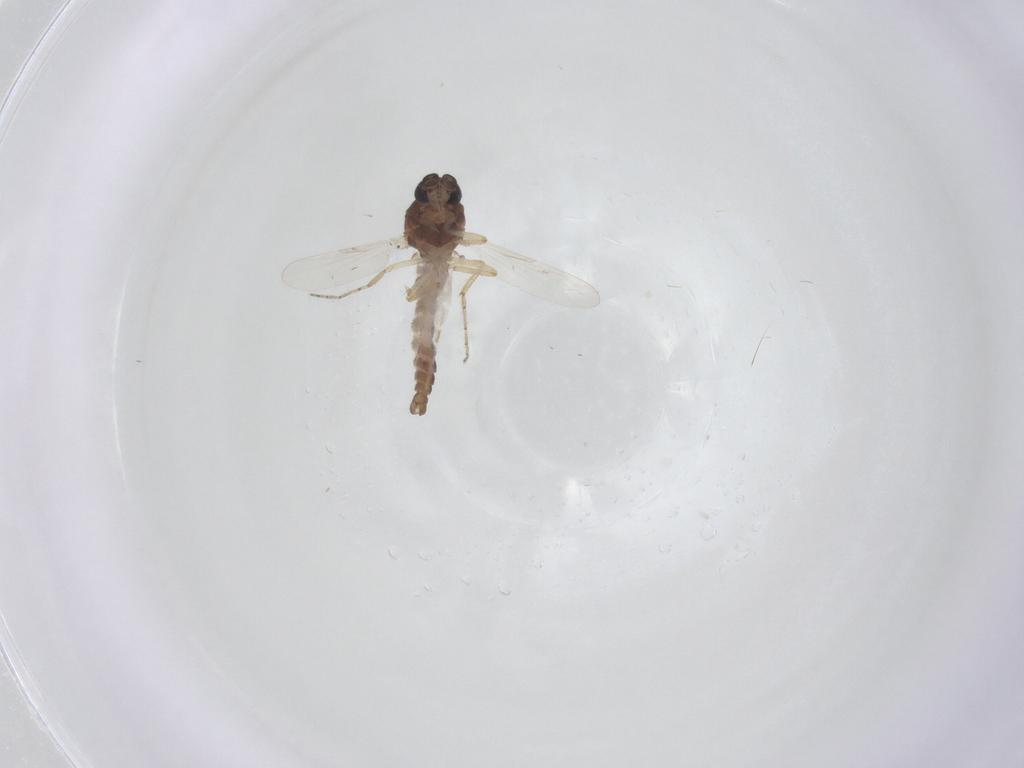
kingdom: Animalia
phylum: Arthropoda
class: Insecta
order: Diptera
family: Ceratopogonidae
